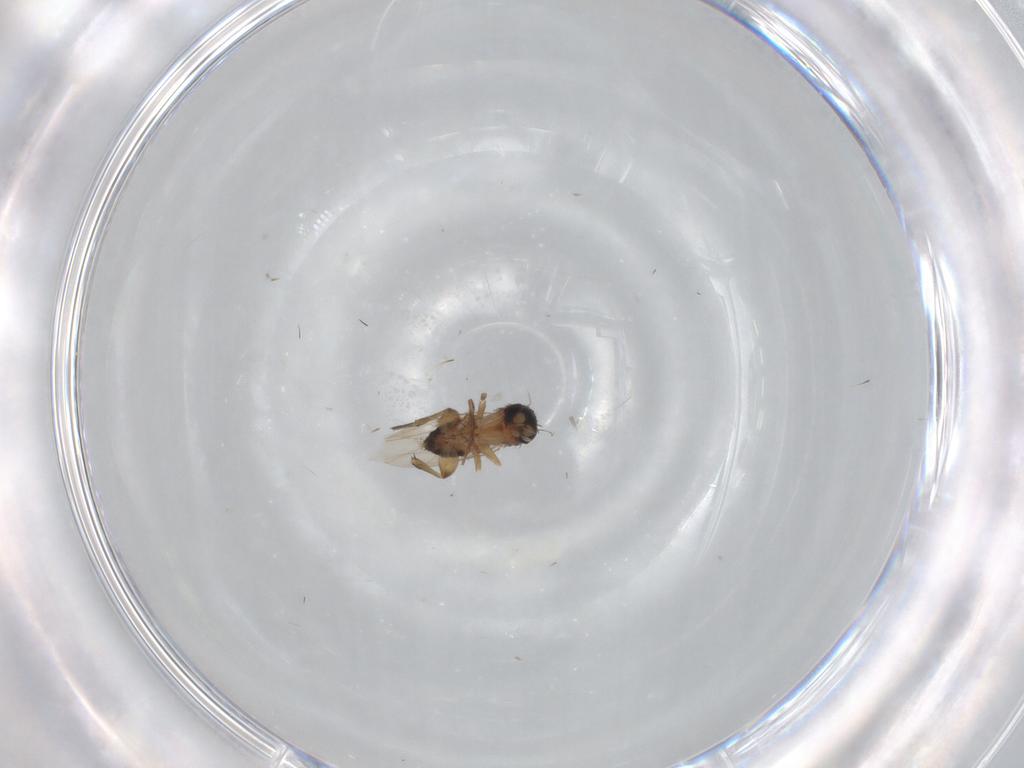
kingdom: Animalia
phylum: Arthropoda
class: Insecta
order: Diptera
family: Phoridae
